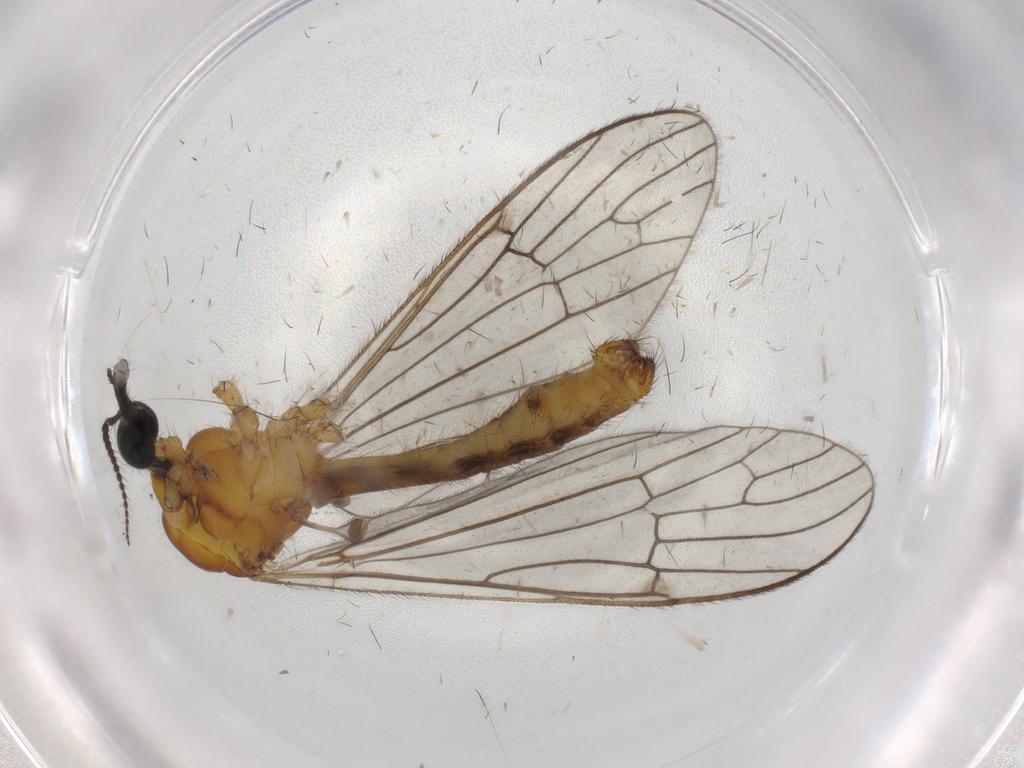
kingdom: Animalia
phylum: Arthropoda
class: Insecta
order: Diptera
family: Limoniidae
